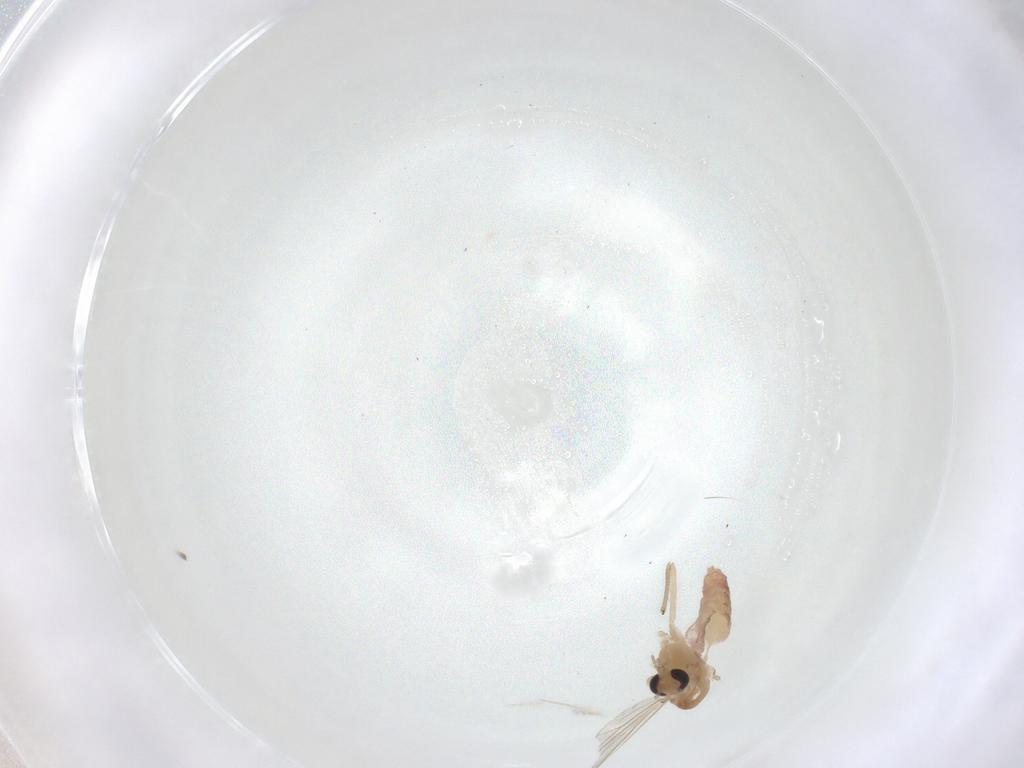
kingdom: Animalia
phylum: Arthropoda
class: Insecta
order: Diptera
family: Chironomidae
